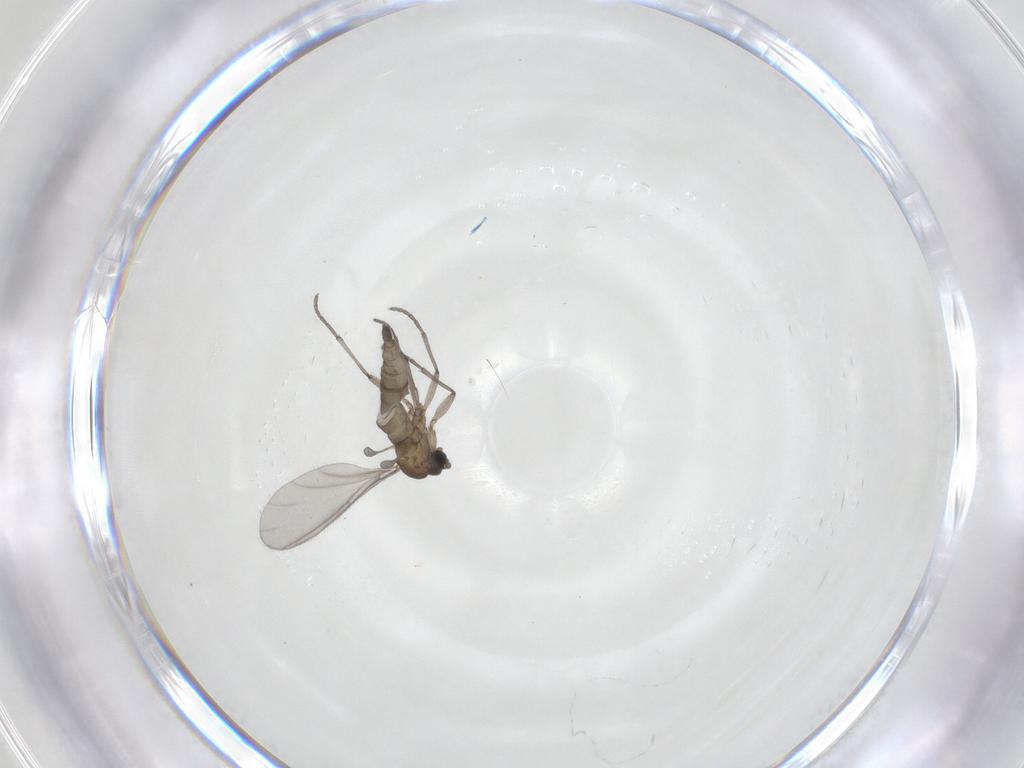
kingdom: Animalia
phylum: Arthropoda
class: Insecta
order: Diptera
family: Sciaridae
